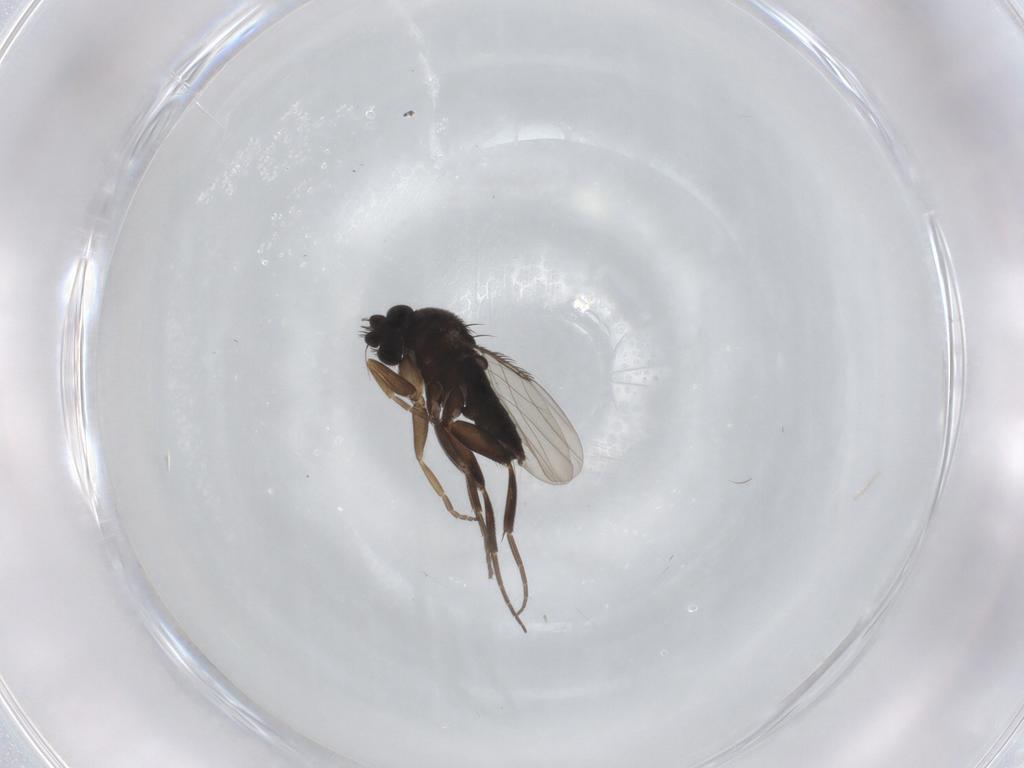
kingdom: Animalia
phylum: Arthropoda
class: Insecta
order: Diptera
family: Phoridae
